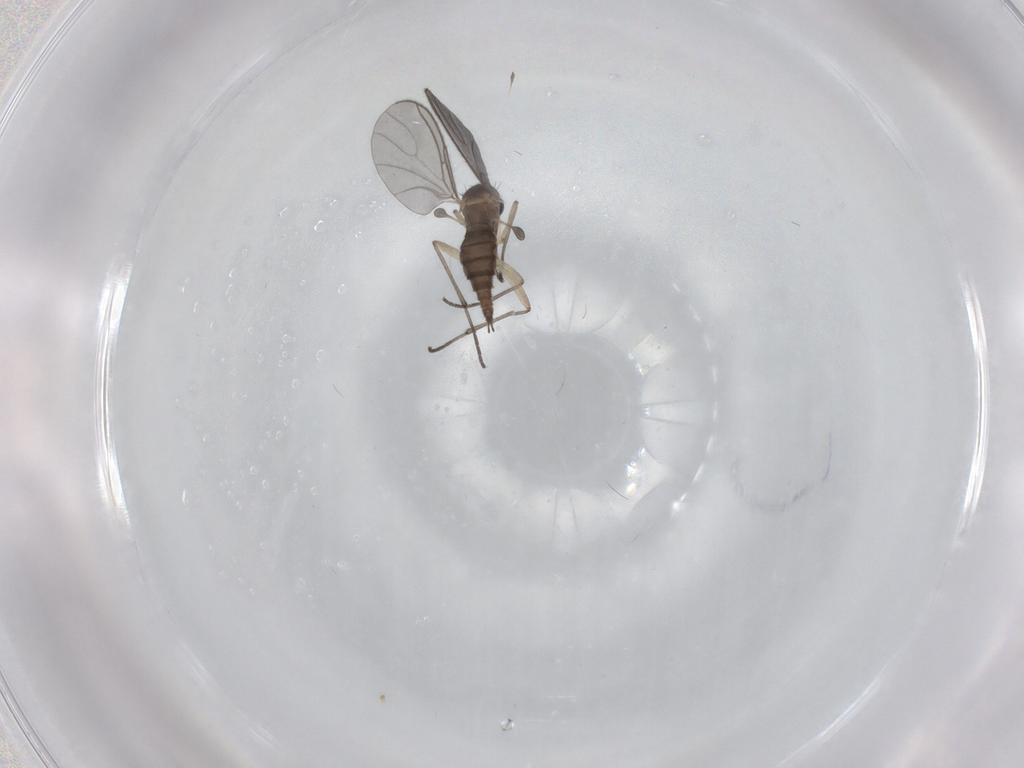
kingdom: Animalia
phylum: Arthropoda
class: Insecta
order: Diptera
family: Sciaridae
